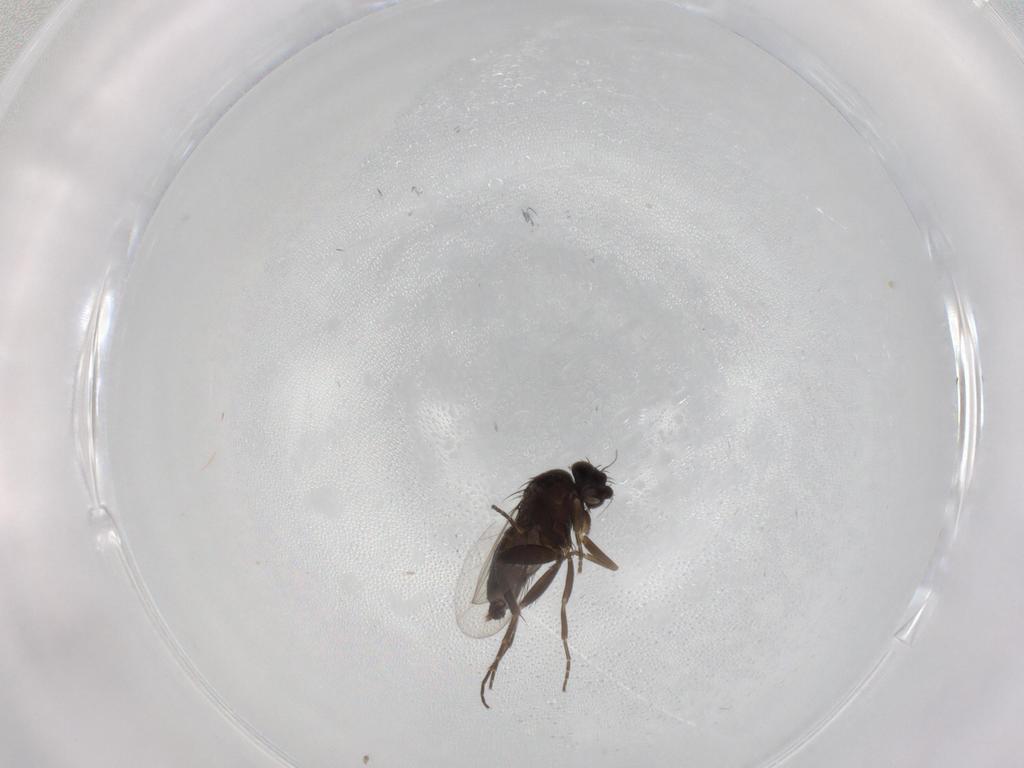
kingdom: Animalia
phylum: Arthropoda
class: Insecta
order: Diptera
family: Phoridae
